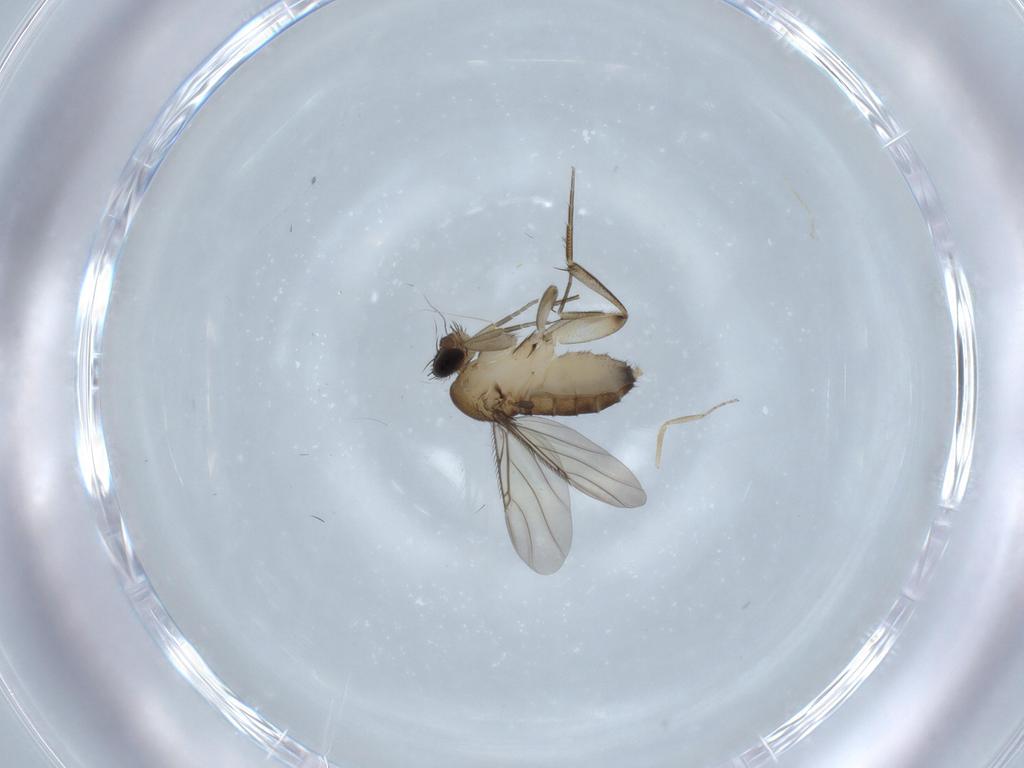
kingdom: Animalia
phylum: Arthropoda
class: Insecta
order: Diptera
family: Phoridae
